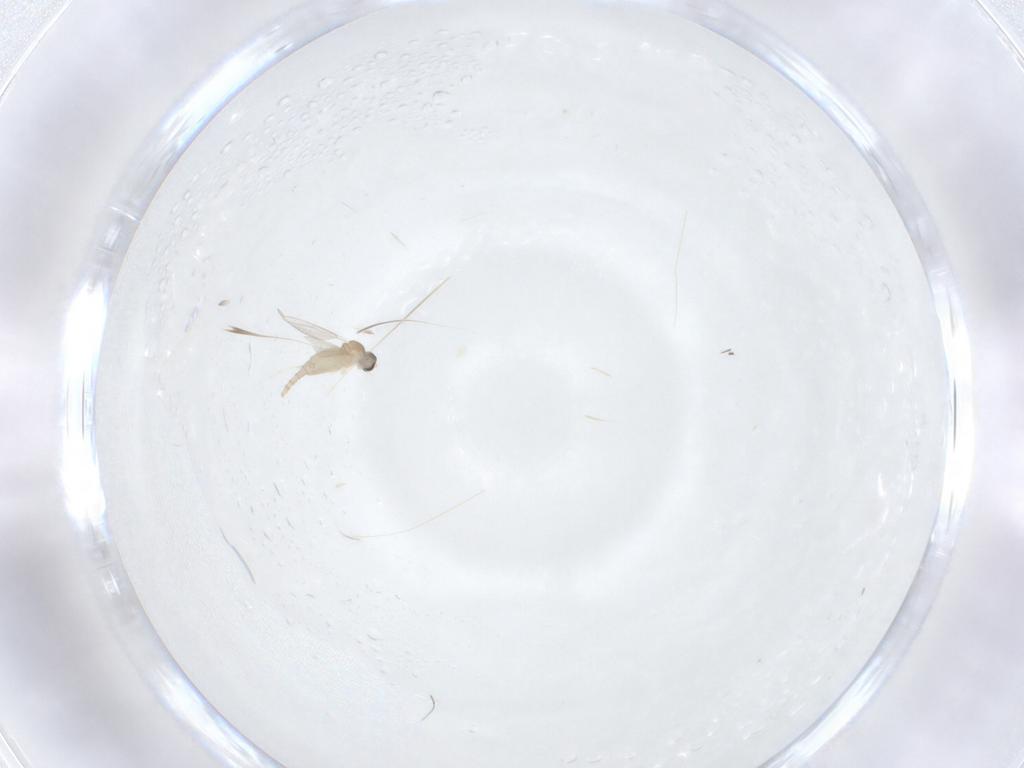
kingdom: Animalia
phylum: Arthropoda
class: Insecta
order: Diptera
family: Cecidomyiidae
